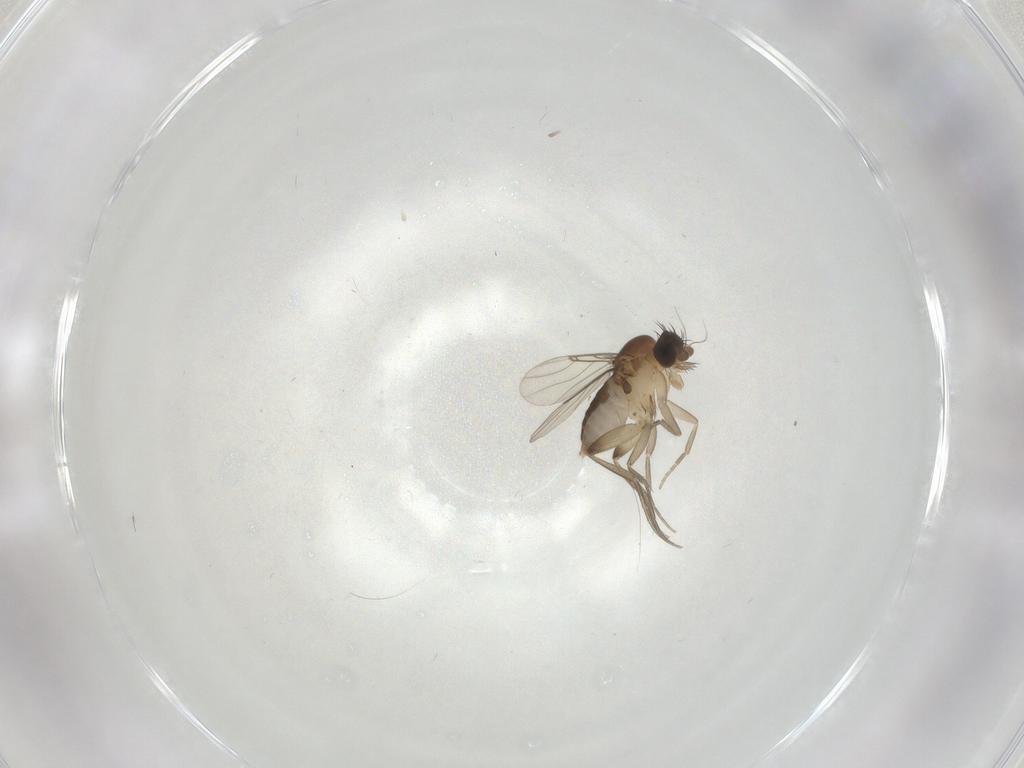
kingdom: Animalia
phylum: Arthropoda
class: Insecta
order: Diptera
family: Phoridae
